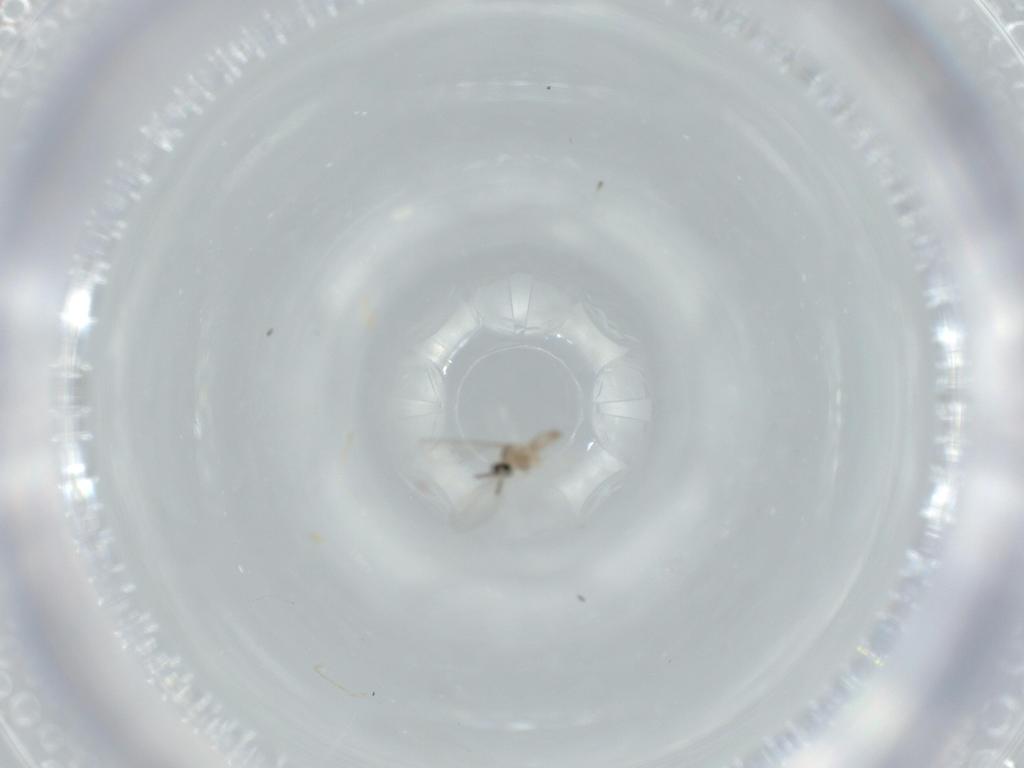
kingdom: Animalia
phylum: Arthropoda
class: Insecta
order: Diptera
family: Cecidomyiidae
